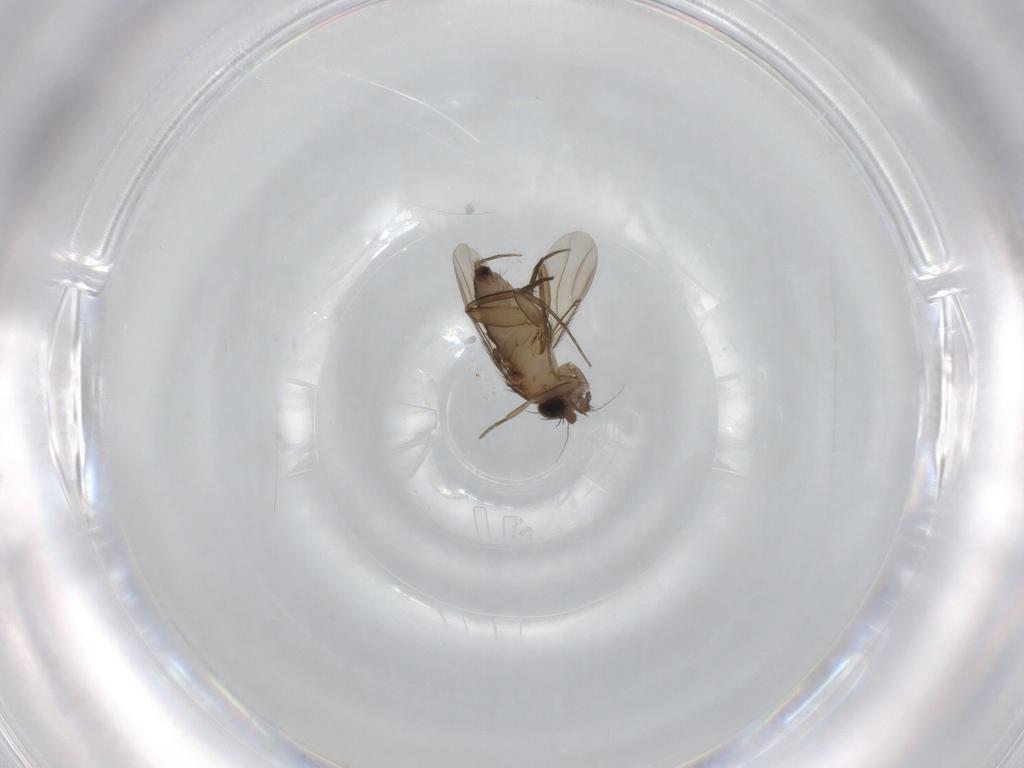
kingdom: Animalia
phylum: Arthropoda
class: Insecta
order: Diptera
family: Phoridae
